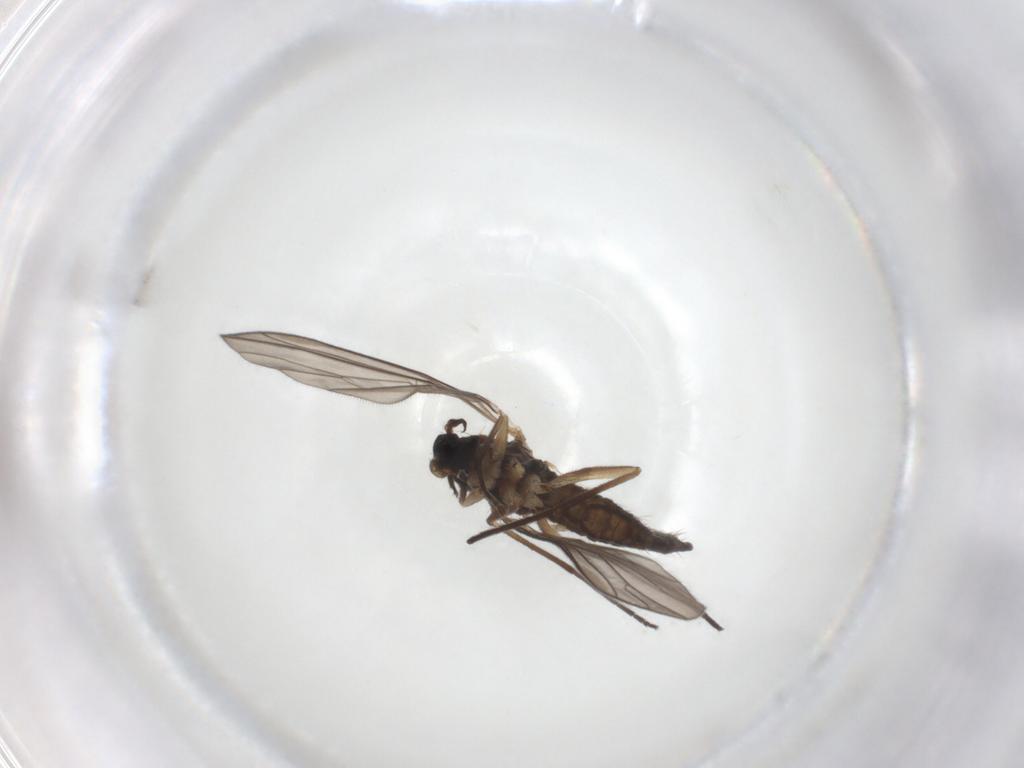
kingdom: Animalia
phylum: Arthropoda
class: Insecta
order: Diptera
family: Empididae
